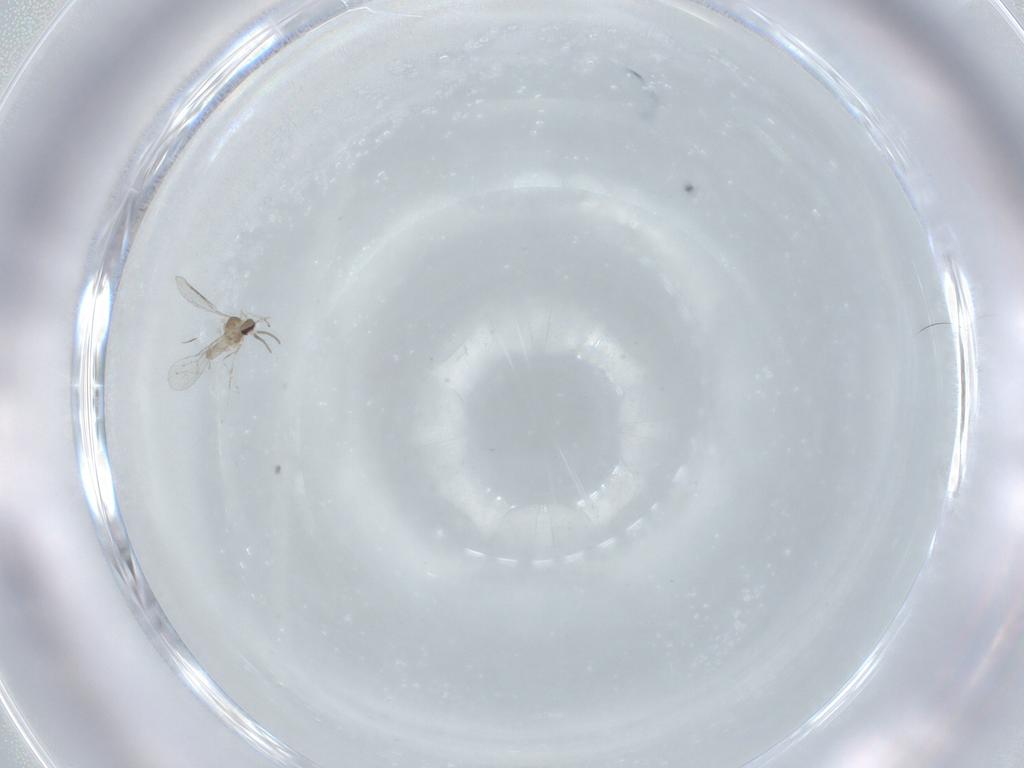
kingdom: Animalia
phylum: Arthropoda
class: Insecta
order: Diptera
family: Cecidomyiidae
